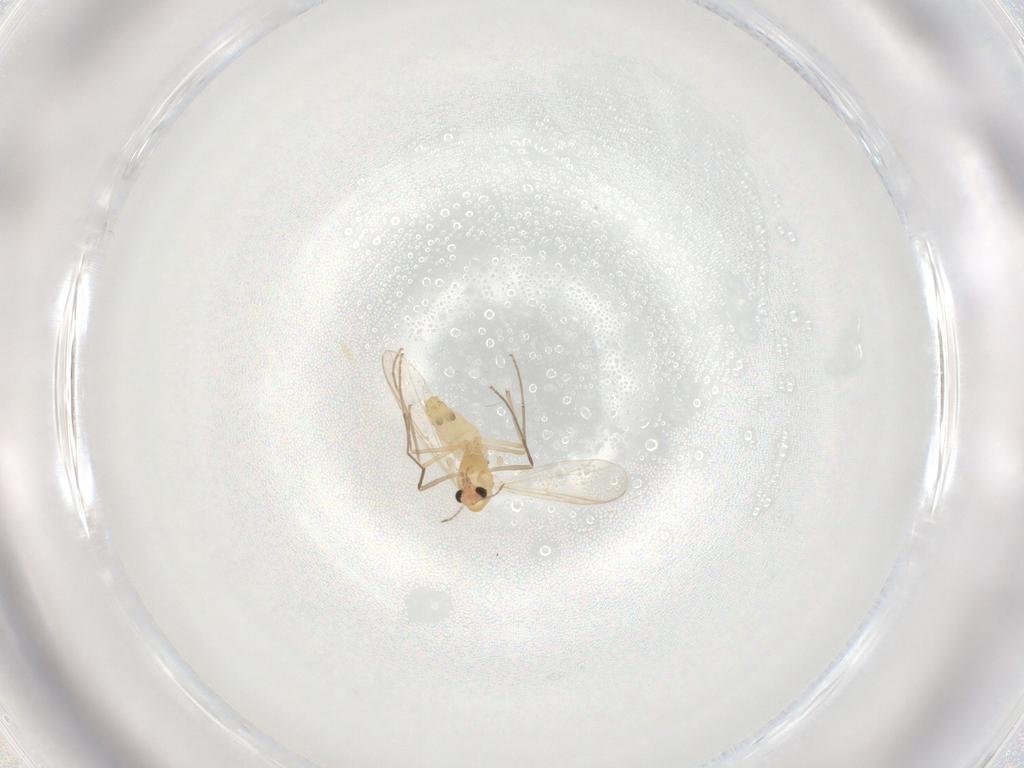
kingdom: Animalia
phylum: Arthropoda
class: Insecta
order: Diptera
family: Chironomidae
